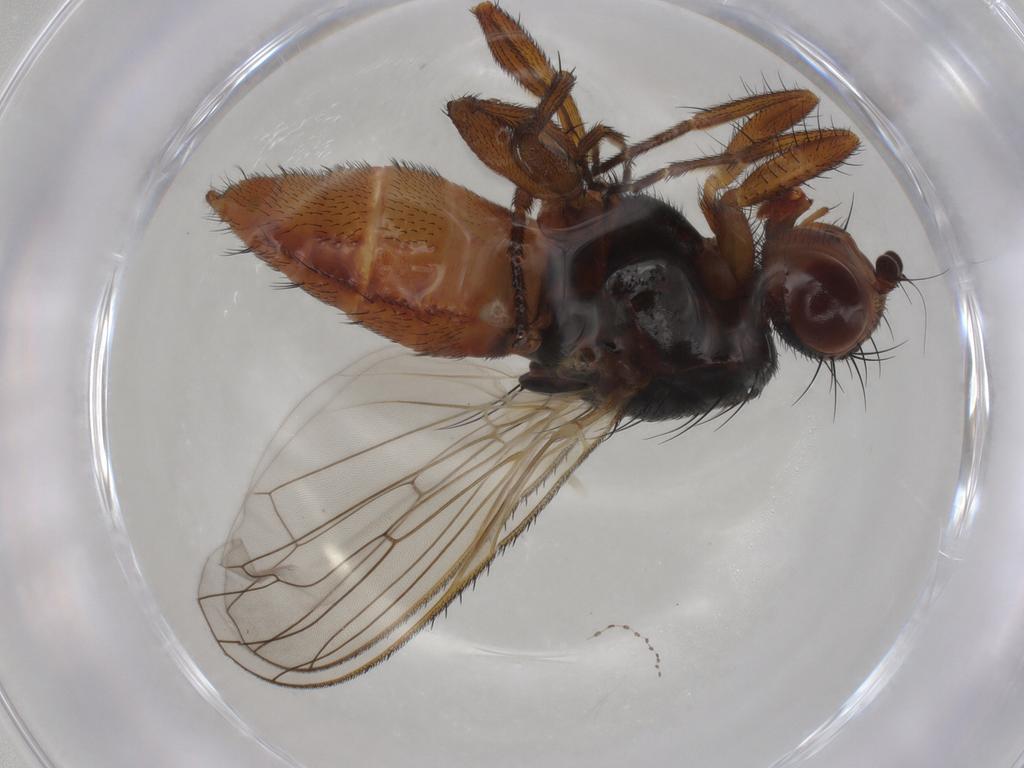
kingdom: Animalia
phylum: Arthropoda
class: Insecta
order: Diptera
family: Heleomyzidae
